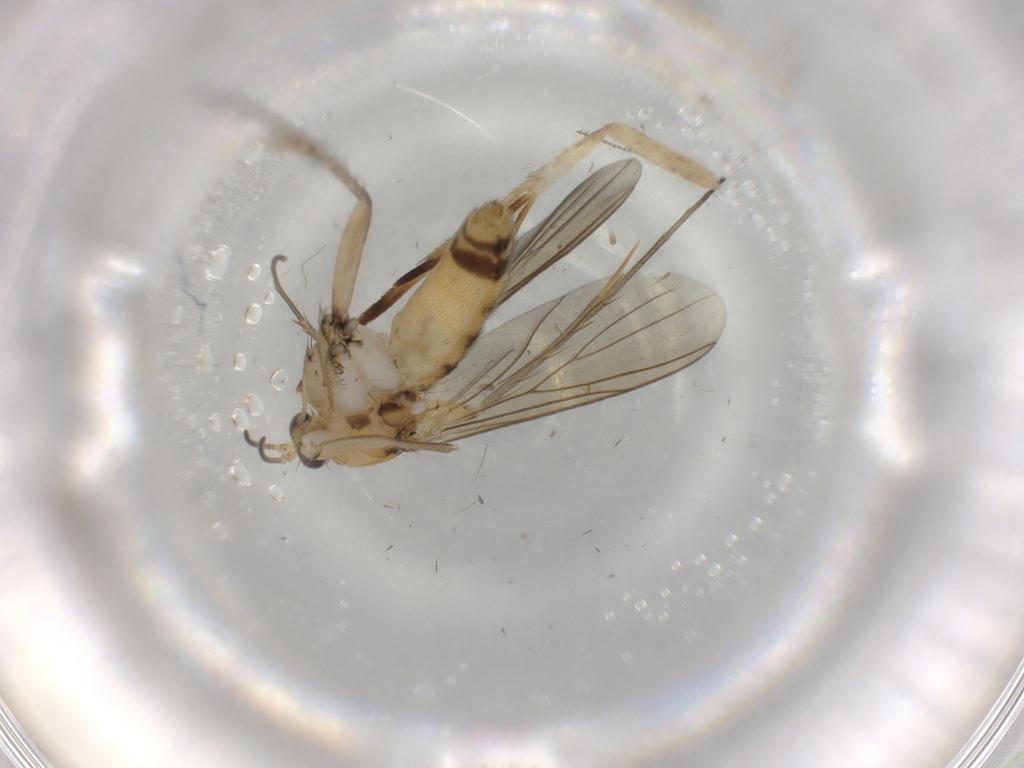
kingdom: Animalia
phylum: Arthropoda
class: Insecta
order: Diptera
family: Mycetophilidae
